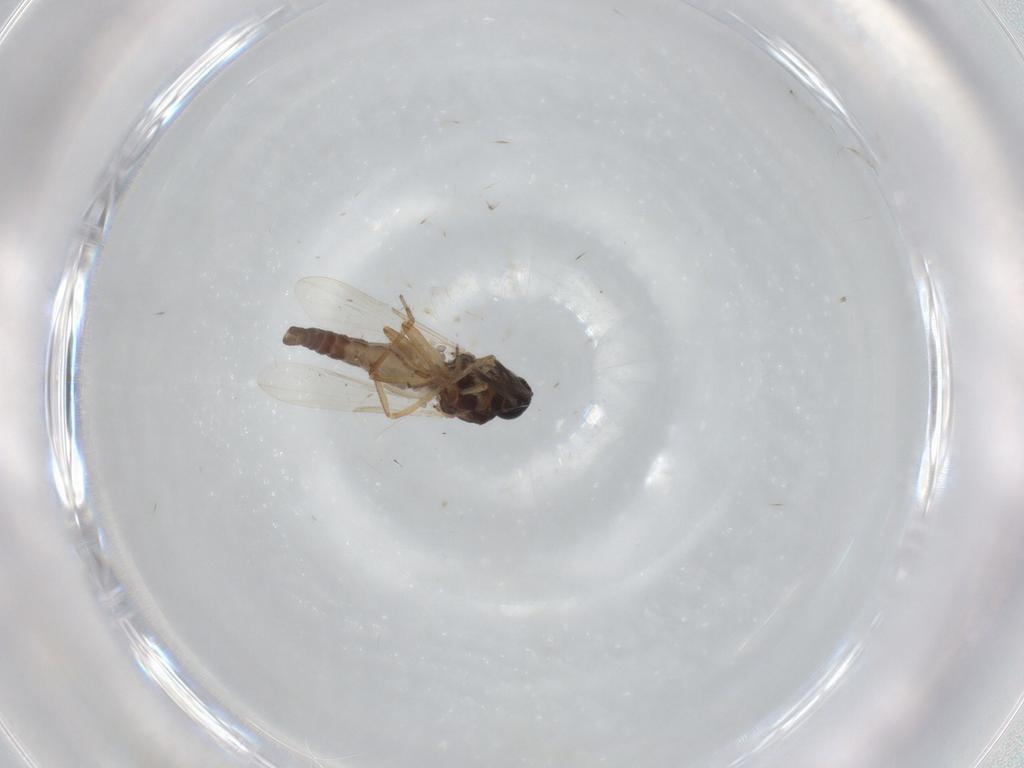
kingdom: Animalia
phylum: Arthropoda
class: Insecta
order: Diptera
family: Ceratopogonidae
